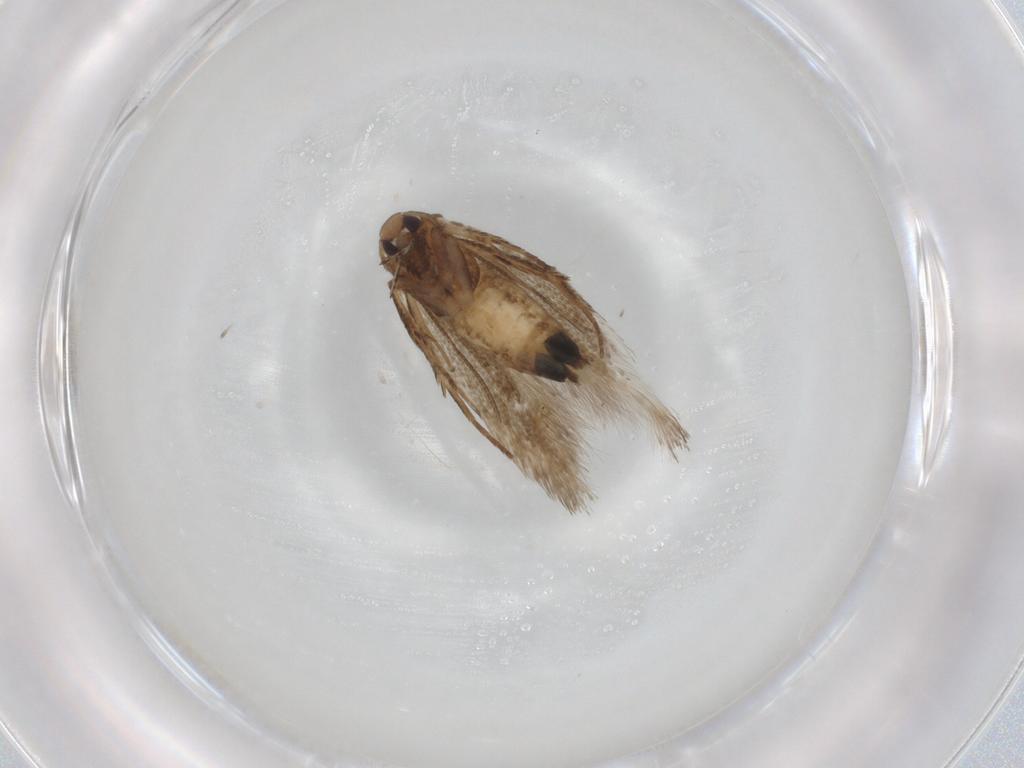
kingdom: Animalia
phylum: Arthropoda
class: Insecta
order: Lepidoptera
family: Cosmopterigidae
